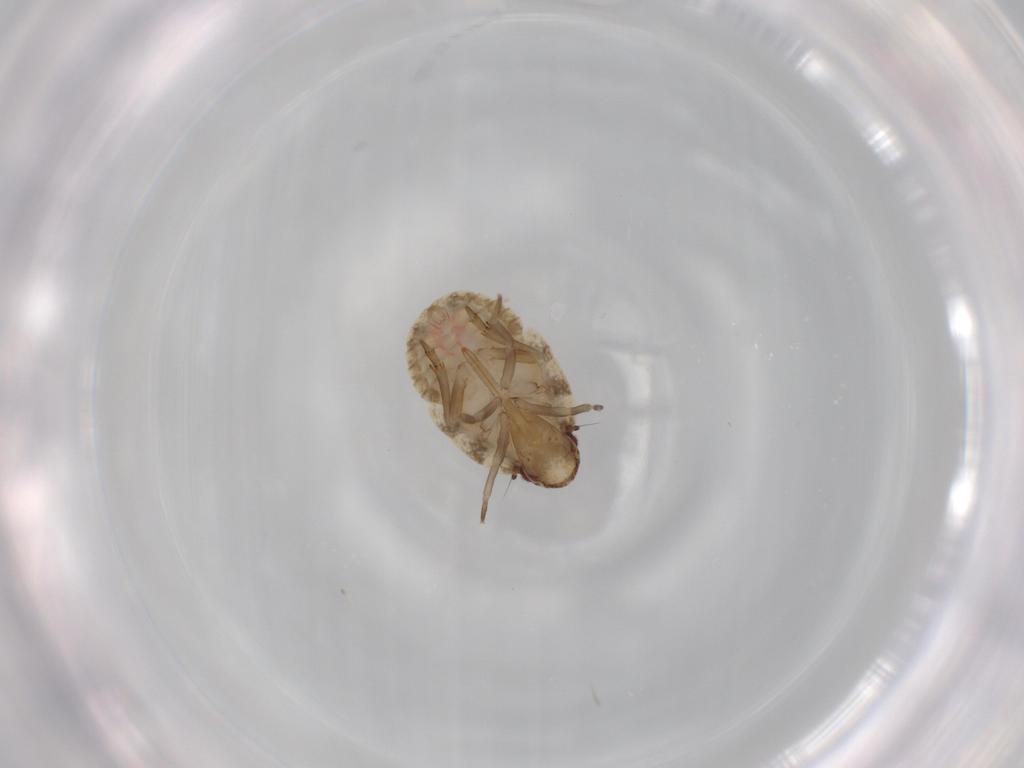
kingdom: Animalia
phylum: Arthropoda
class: Insecta
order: Hemiptera
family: Flatidae
